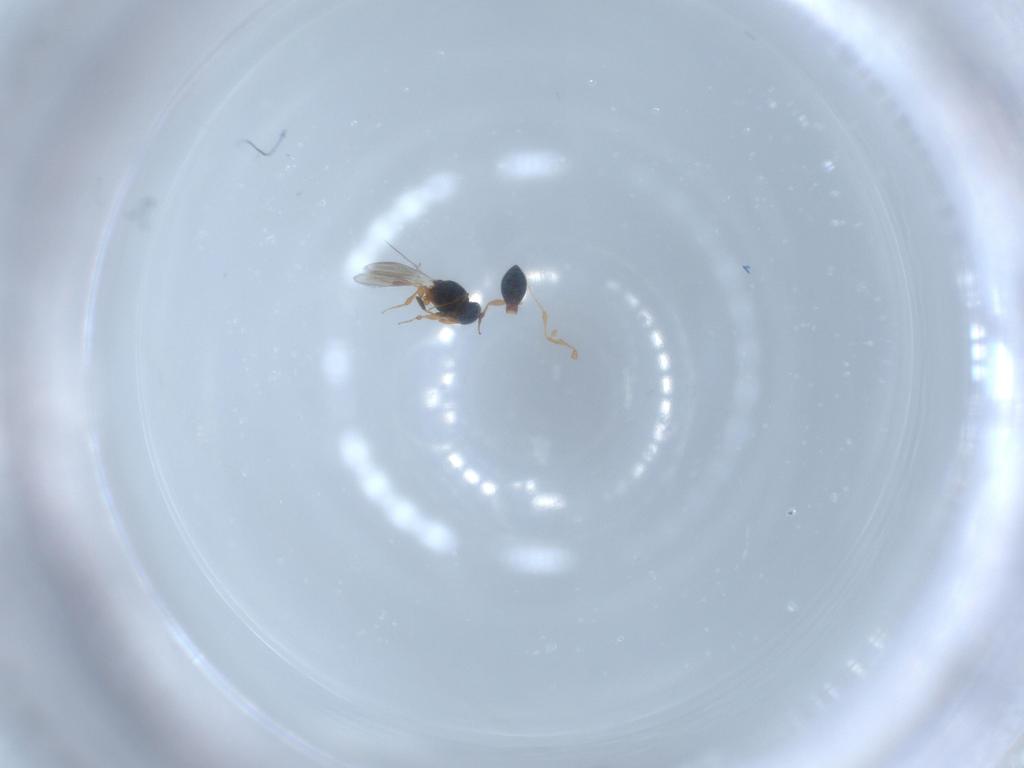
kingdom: Animalia
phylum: Arthropoda
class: Insecta
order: Hymenoptera
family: Platygastridae
